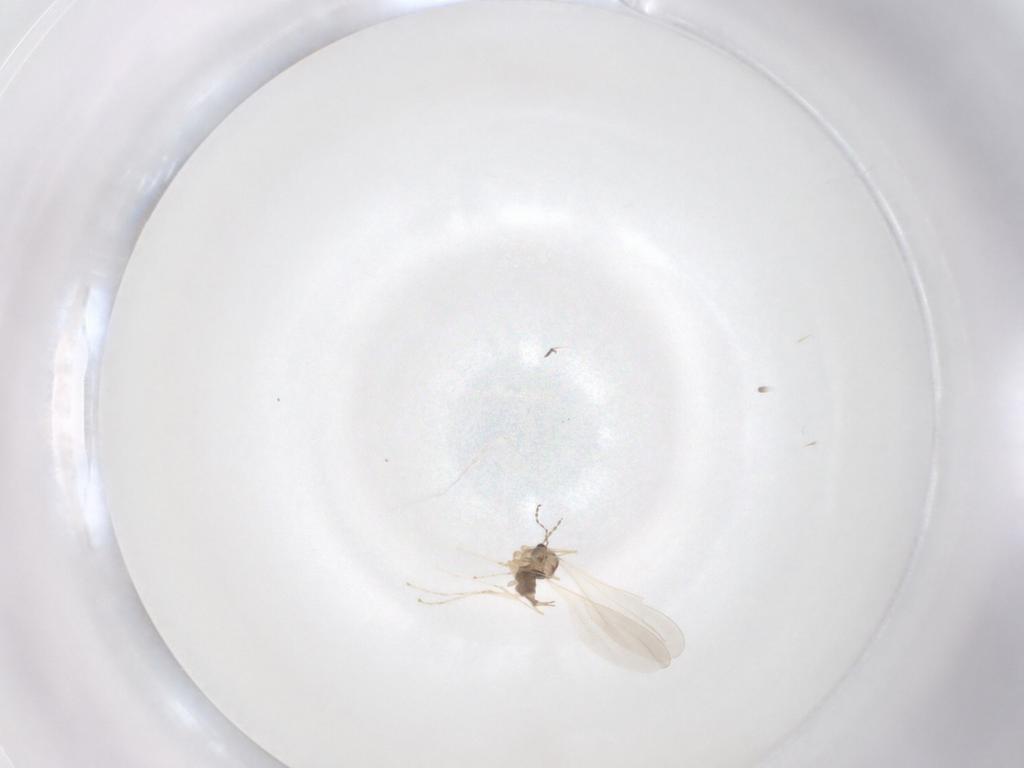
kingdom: Animalia
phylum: Arthropoda
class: Insecta
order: Diptera
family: Cecidomyiidae
